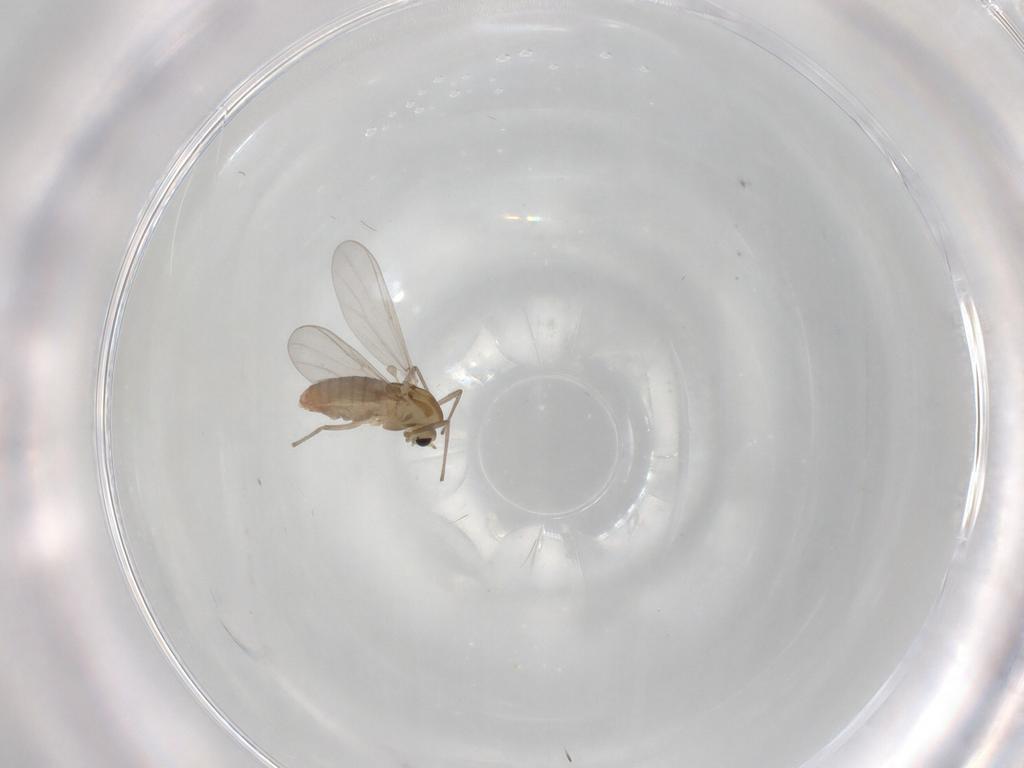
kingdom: Animalia
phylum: Arthropoda
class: Insecta
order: Diptera
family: Chironomidae
